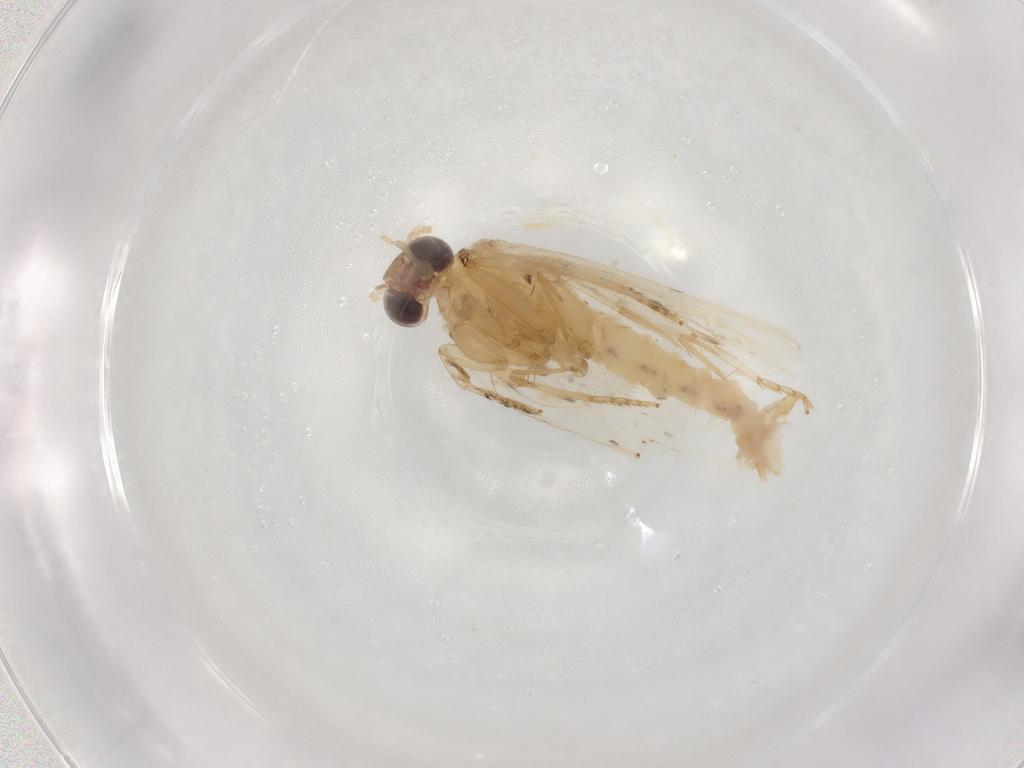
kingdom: Animalia
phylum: Arthropoda
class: Insecta
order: Lepidoptera
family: Tortricidae
